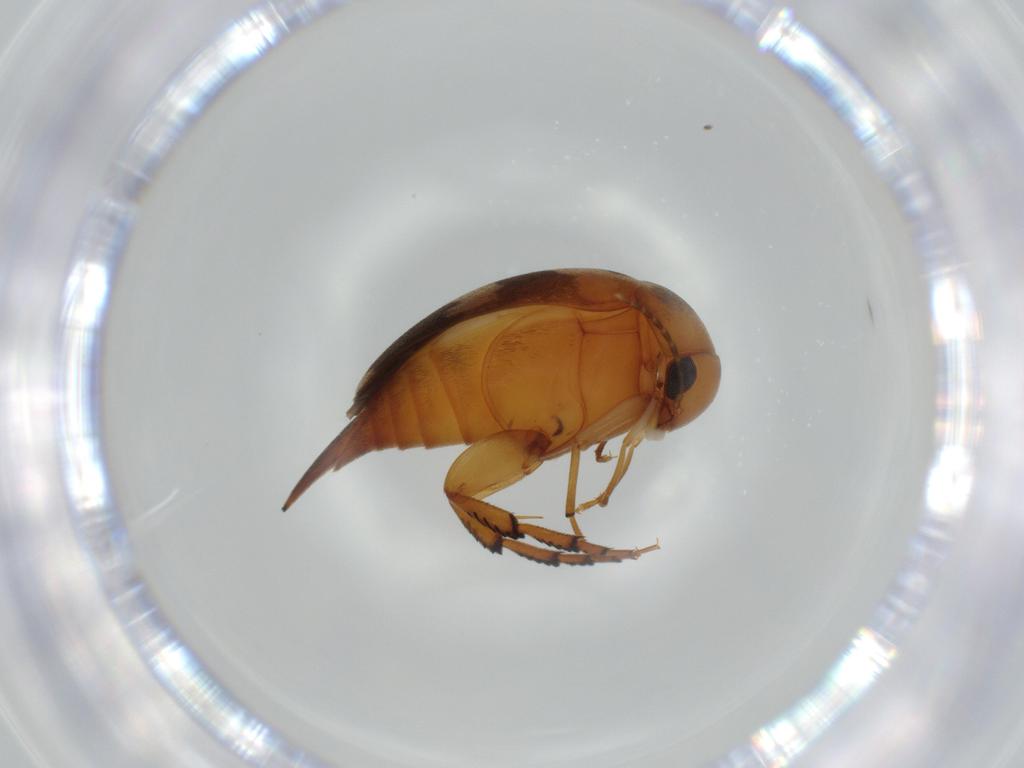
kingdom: Animalia
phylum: Arthropoda
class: Insecta
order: Coleoptera
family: Mordellidae
